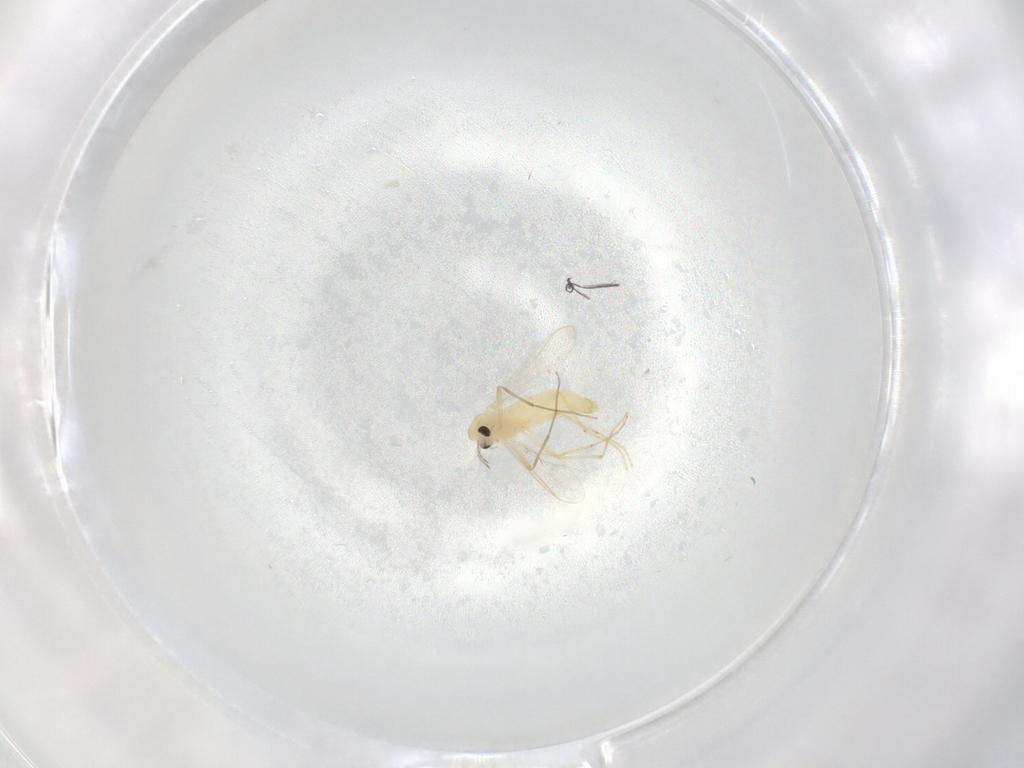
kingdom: Animalia
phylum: Arthropoda
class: Insecta
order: Diptera
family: Chironomidae
